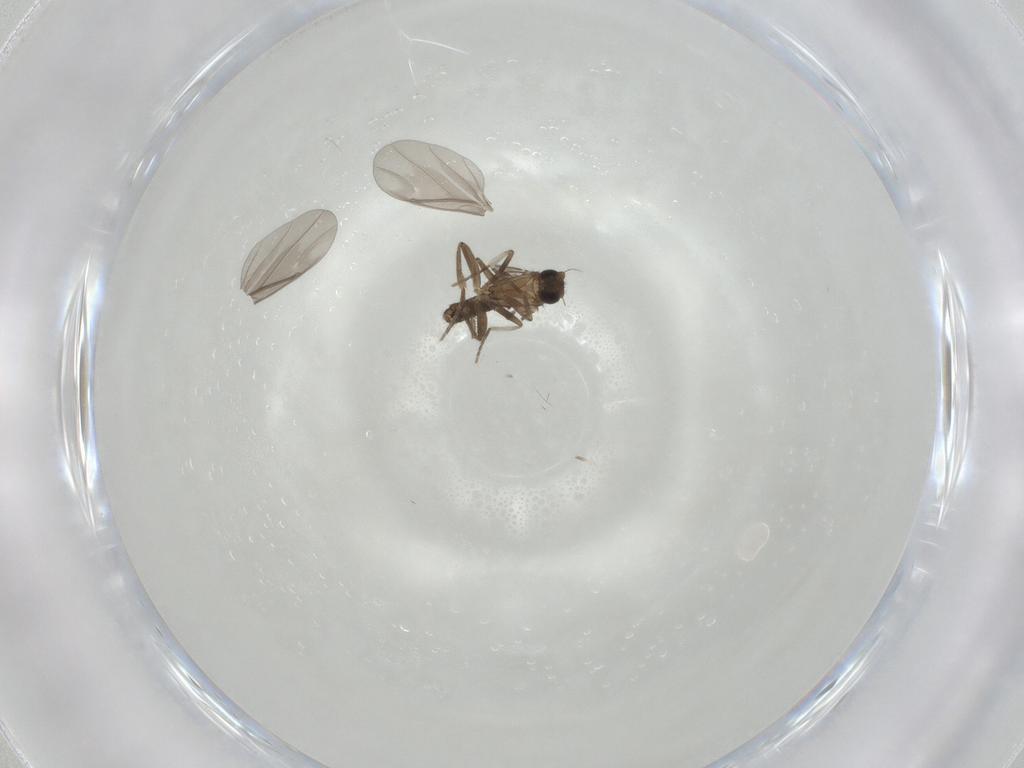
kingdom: Animalia
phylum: Arthropoda
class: Insecta
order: Diptera
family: Phoridae
